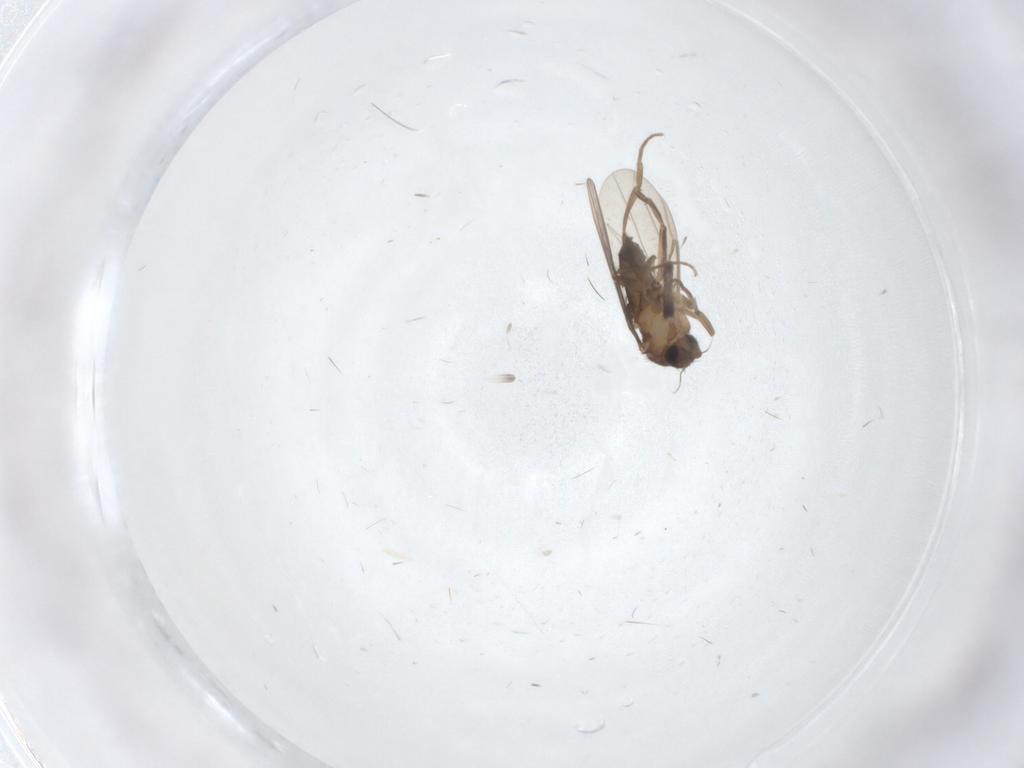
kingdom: Animalia
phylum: Arthropoda
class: Insecta
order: Diptera
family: Phoridae
